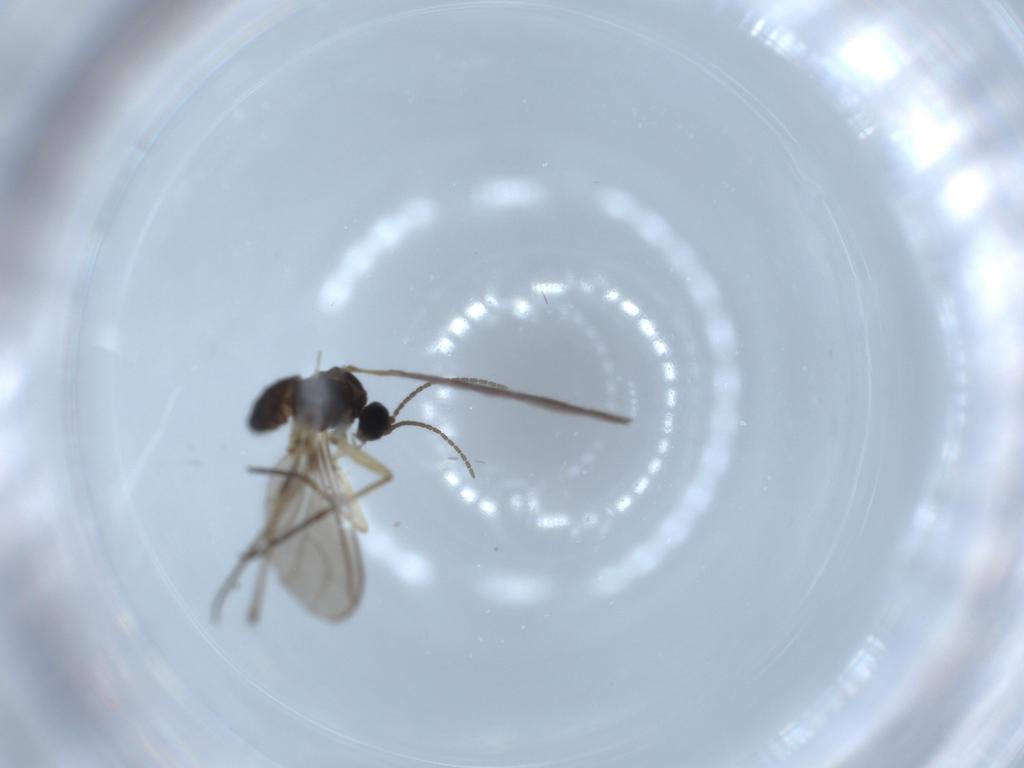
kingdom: Animalia
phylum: Arthropoda
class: Insecta
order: Diptera
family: Sciaridae
